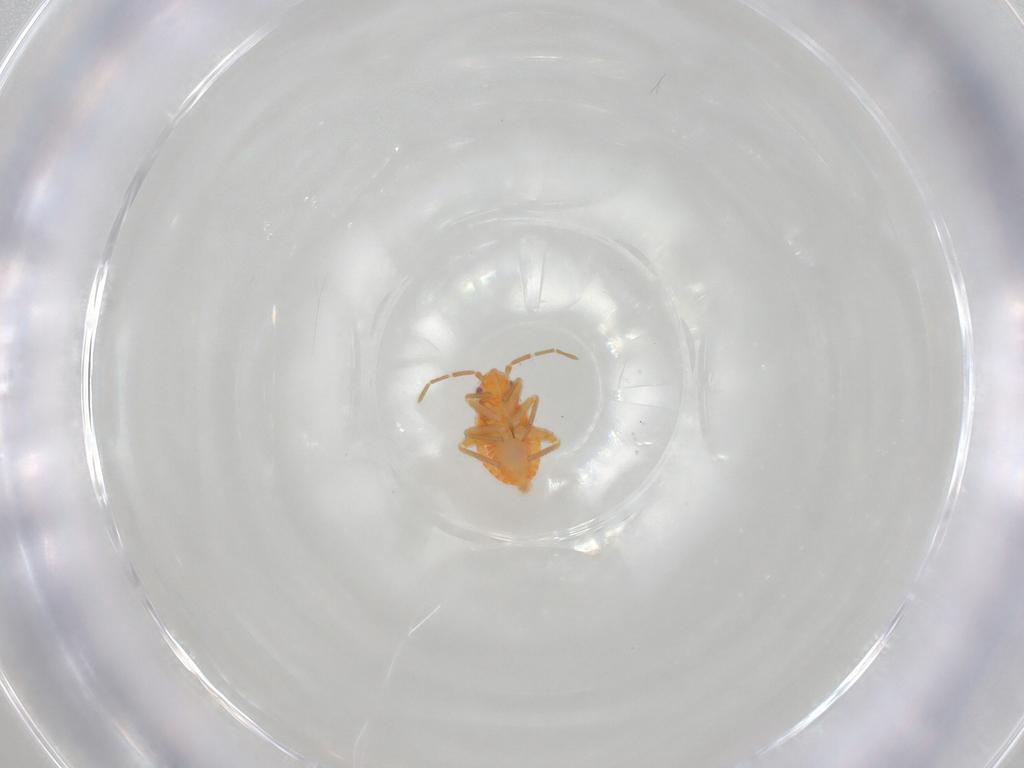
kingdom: Animalia
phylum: Arthropoda
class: Insecta
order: Hemiptera
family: Miridae
